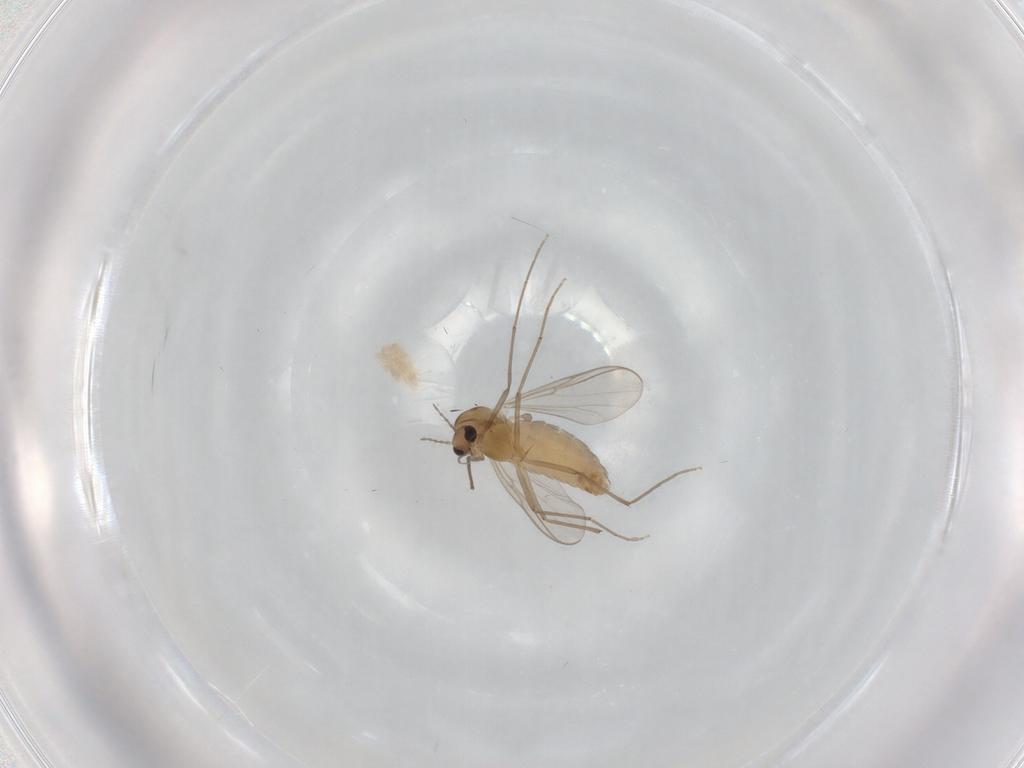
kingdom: Animalia
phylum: Arthropoda
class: Insecta
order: Diptera
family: Chironomidae
